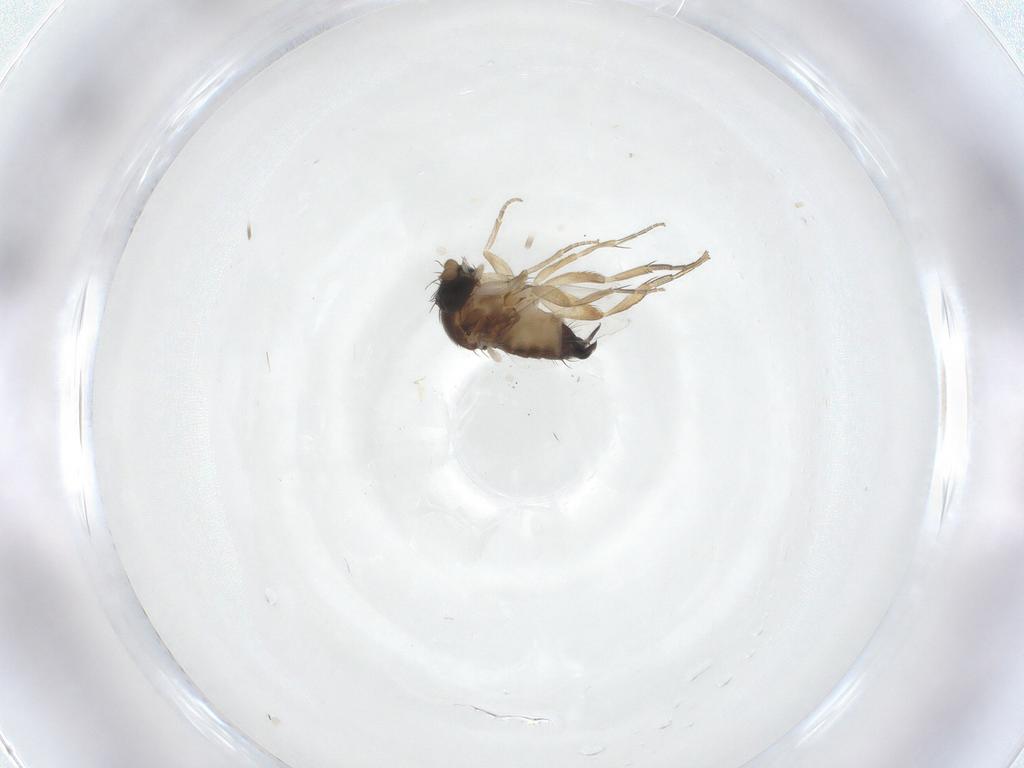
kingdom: Animalia
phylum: Arthropoda
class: Insecta
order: Diptera
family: Phoridae
